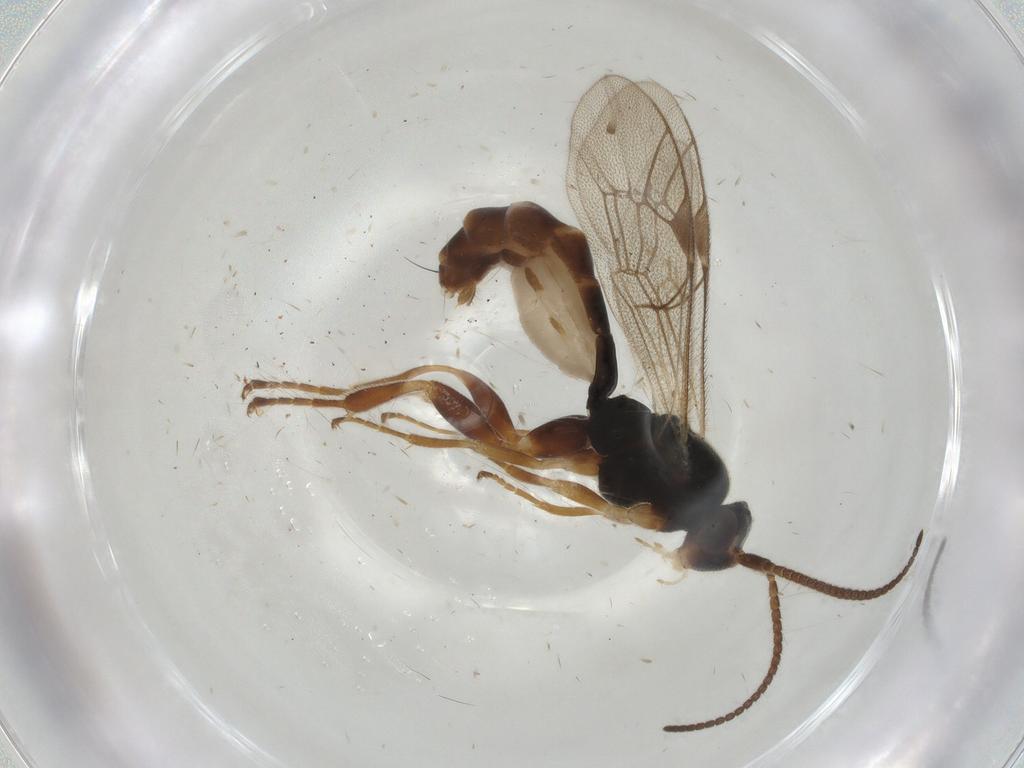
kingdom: Animalia
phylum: Arthropoda
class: Insecta
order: Hymenoptera
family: Ichneumonidae
